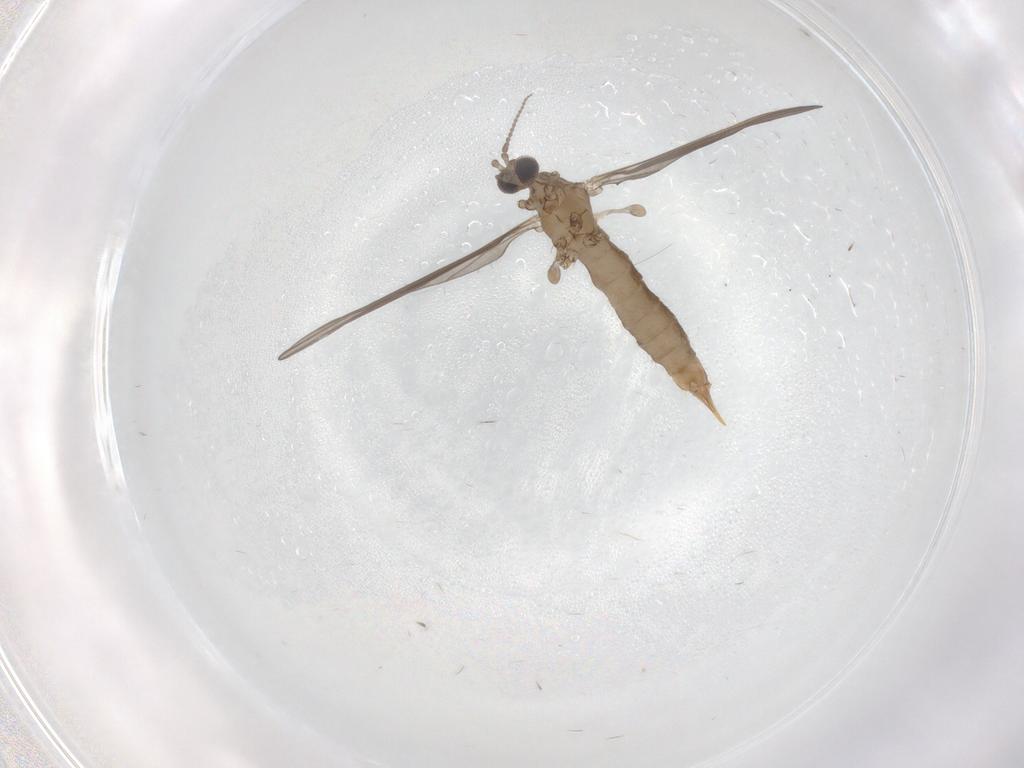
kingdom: Animalia
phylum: Arthropoda
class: Insecta
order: Diptera
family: Limoniidae
